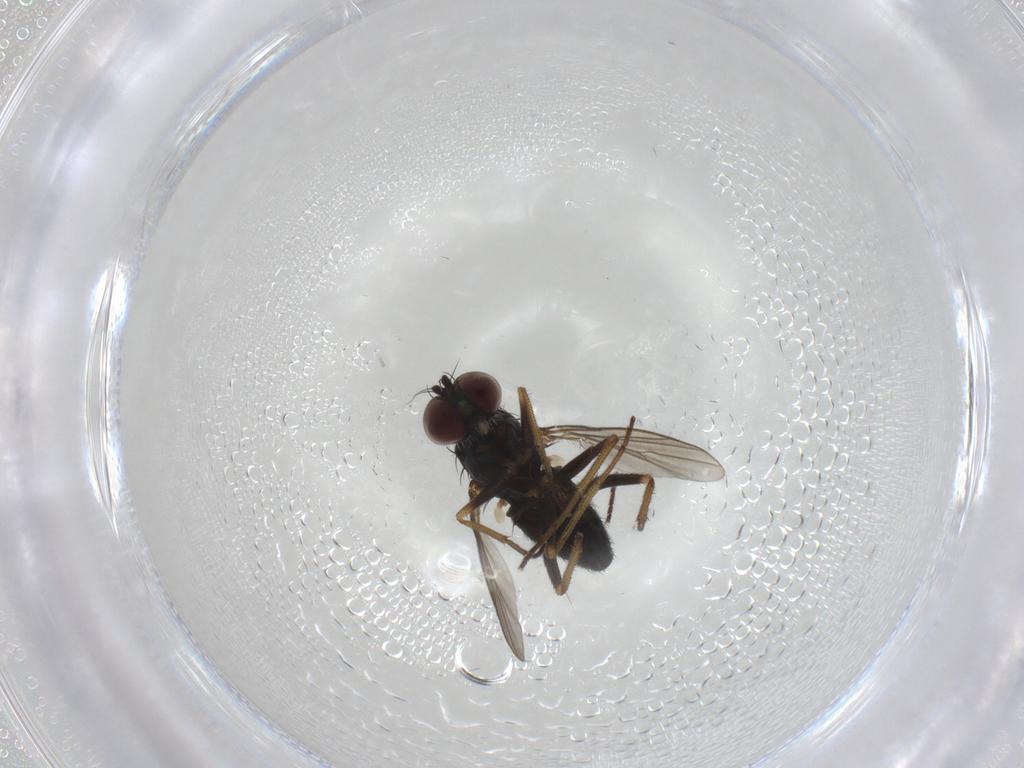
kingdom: Animalia
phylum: Arthropoda
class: Insecta
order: Diptera
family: Dolichopodidae
